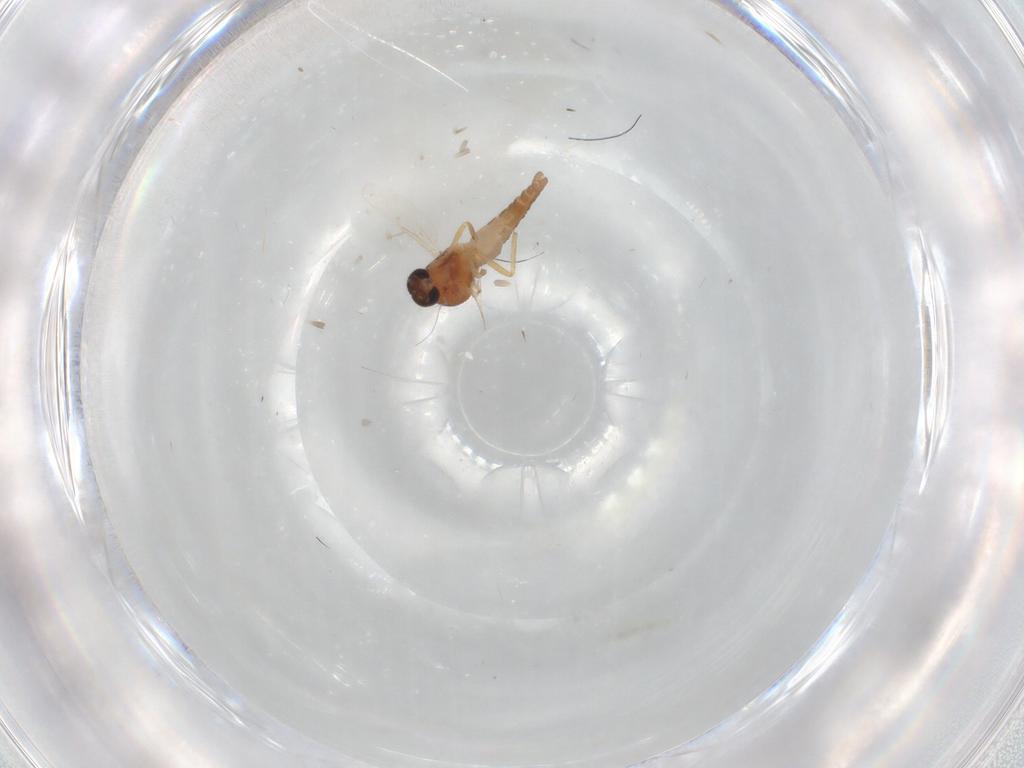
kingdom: Animalia
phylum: Arthropoda
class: Insecta
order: Diptera
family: Ceratopogonidae
